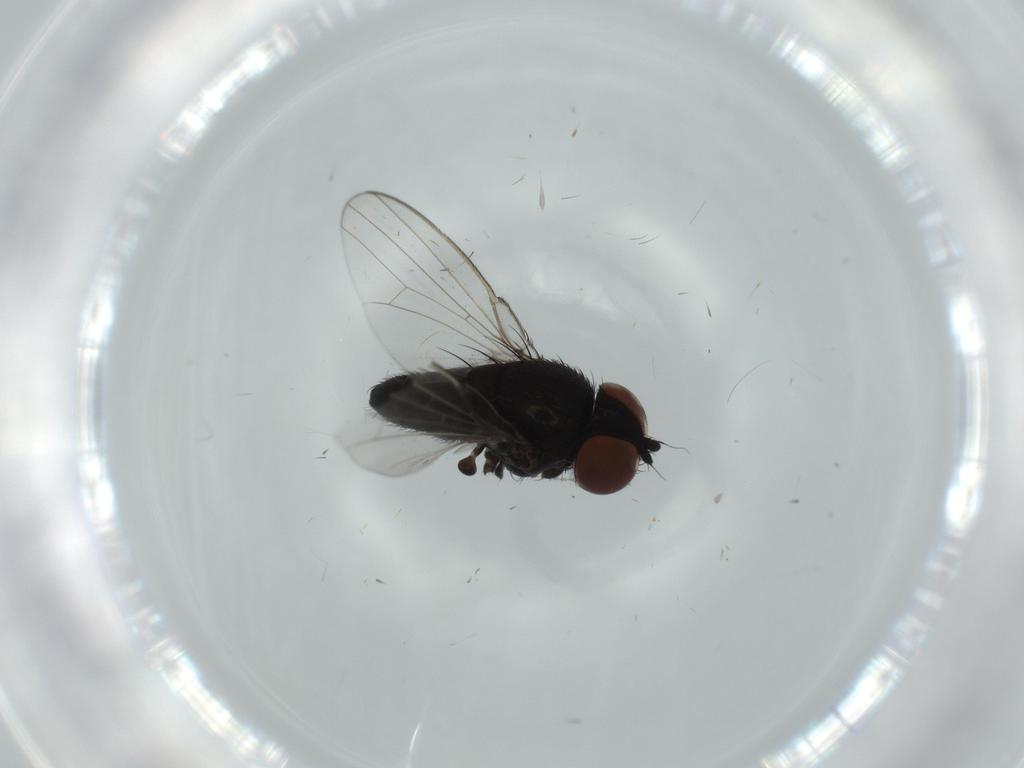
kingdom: Animalia
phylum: Arthropoda
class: Insecta
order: Diptera
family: Milichiidae
